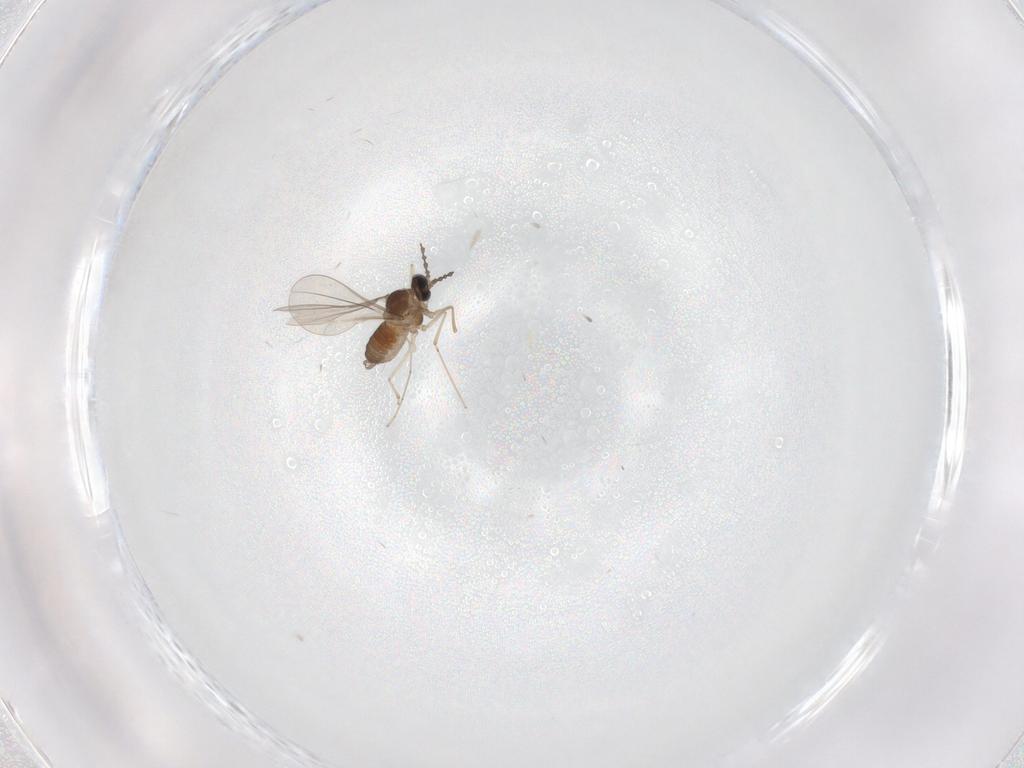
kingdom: Animalia
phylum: Arthropoda
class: Insecta
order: Diptera
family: Cecidomyiidae
